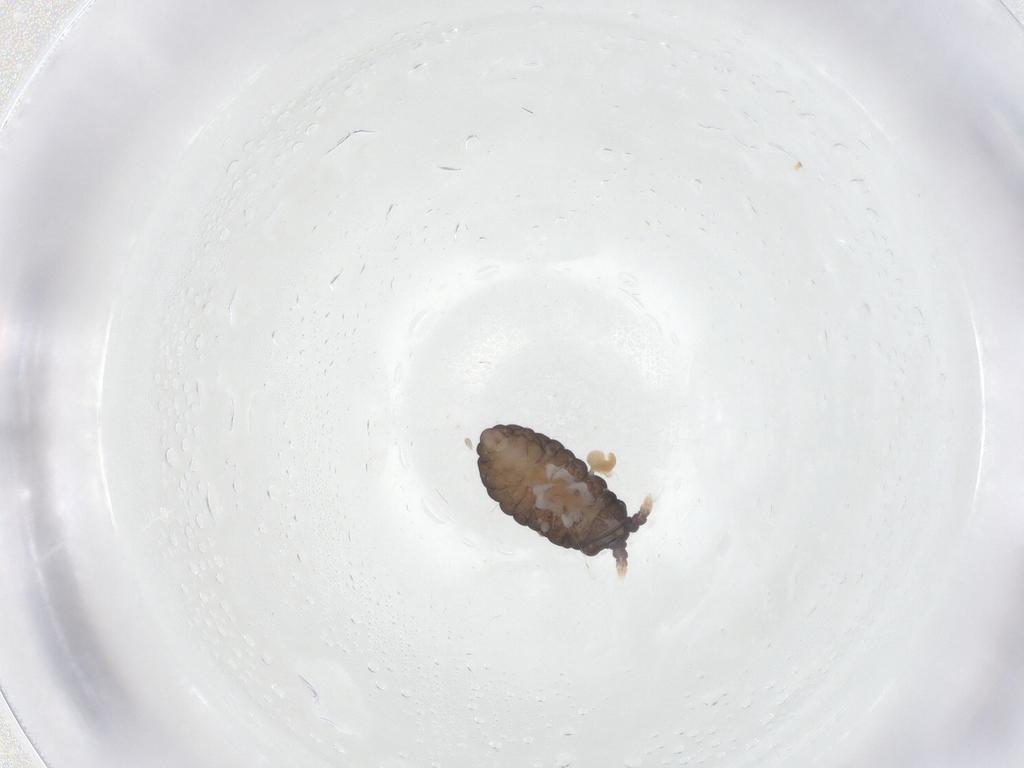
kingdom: Animalia
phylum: Arthropoda
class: Collembola
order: Poduromorpha
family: Neanuridae
